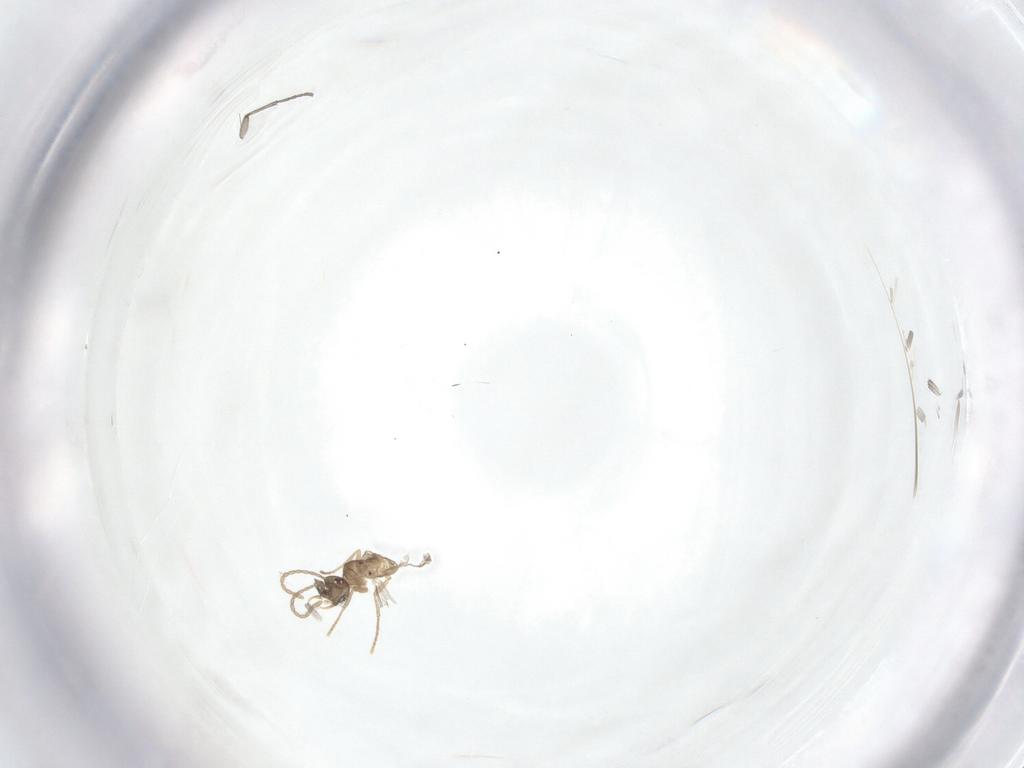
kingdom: Animalia
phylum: Arthropoda
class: Insecta
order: Hymenoptera
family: Formicidae
